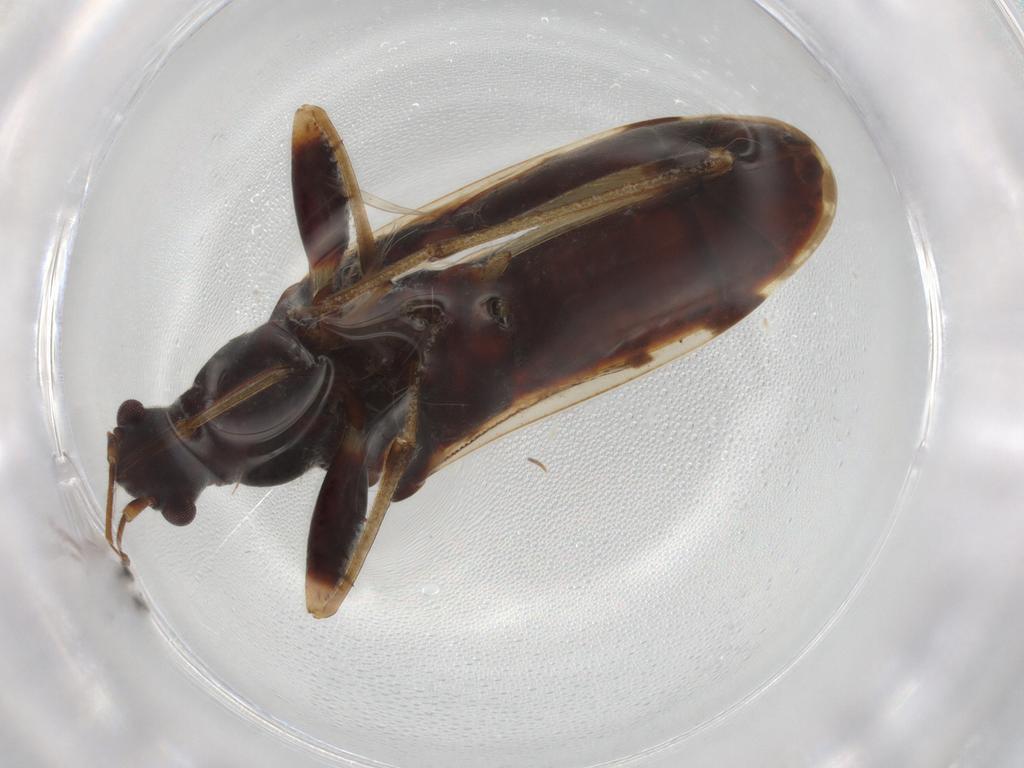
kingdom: Animalia
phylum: Arthropoda
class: Insecta
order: Hemiptera
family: Rhyparochromidae
